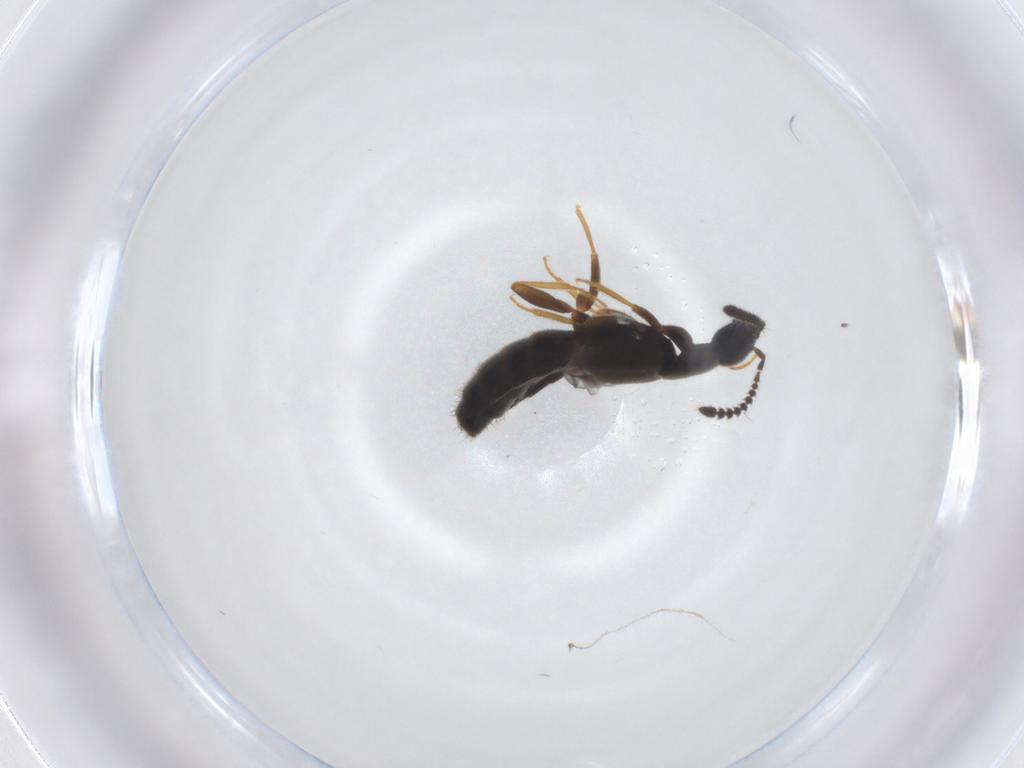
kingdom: Animalia
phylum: Arthropoda
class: Insecta
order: Coleoptera
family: Staphylinidae
